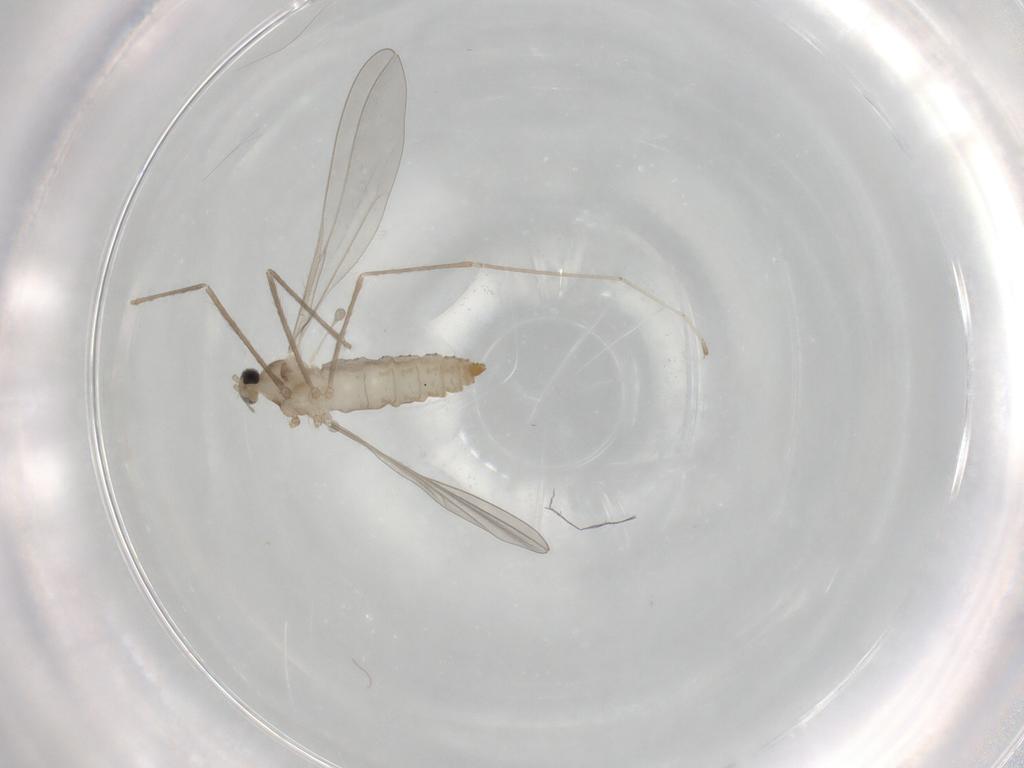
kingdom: Animalia
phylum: Arthropoda
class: Insecta
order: Diptera
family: Cecidomyiidae
